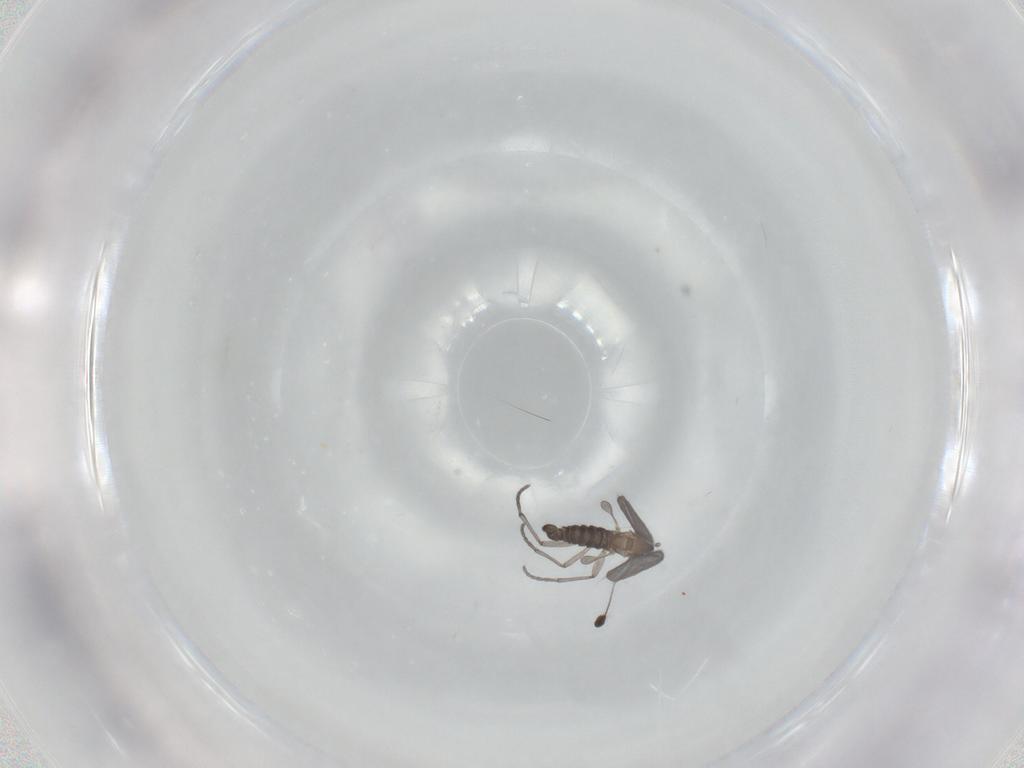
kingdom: Animalia
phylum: Arthropoda
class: Insecta
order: Diptera
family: Sciaridae
